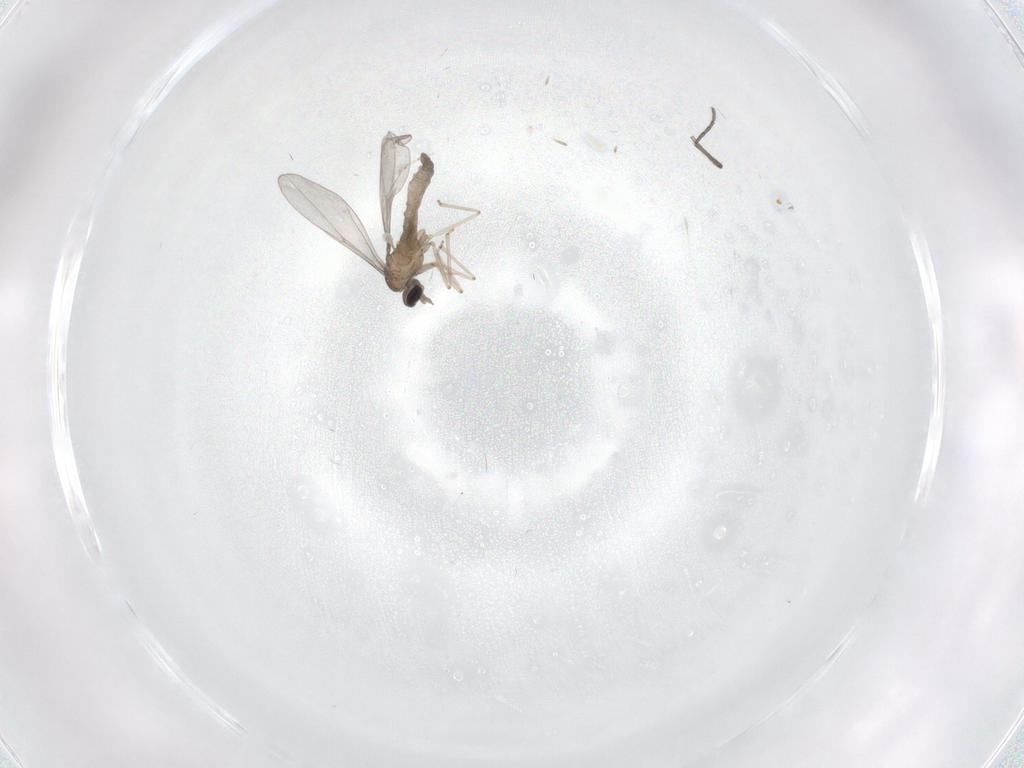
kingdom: Animalia
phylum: Arthropoda
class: Insecta
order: Diptera
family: Cecidomyiidae
